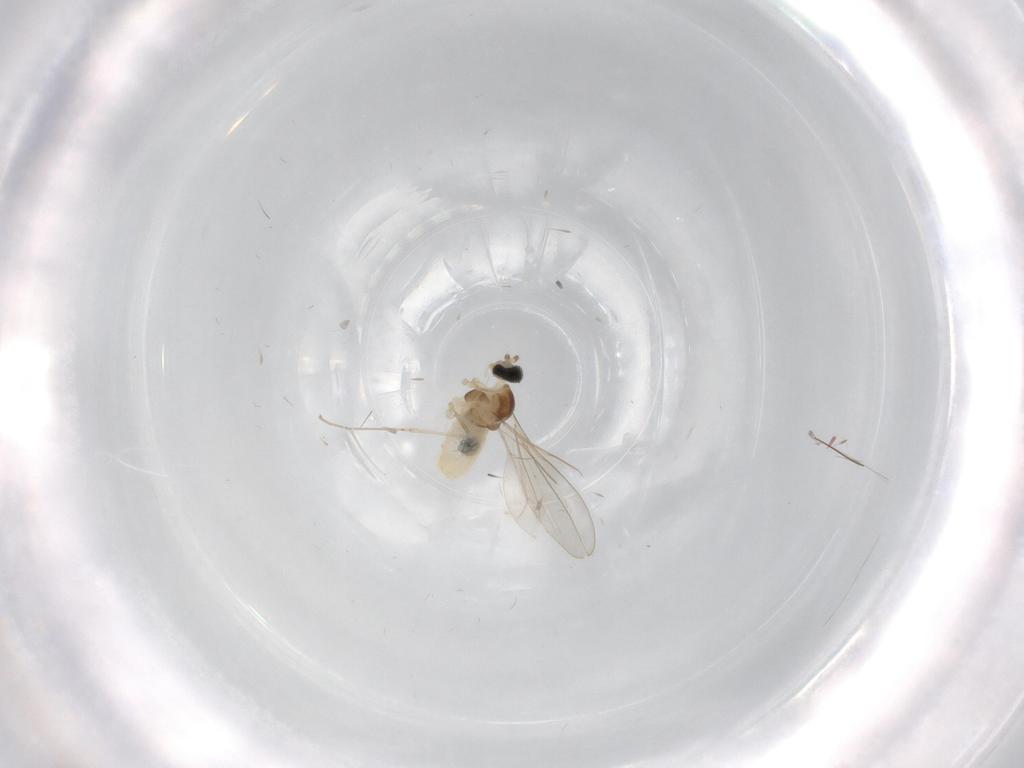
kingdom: Animalia
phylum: Arthropoda
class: Insecta
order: Diptera
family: Cecidomyiidae
